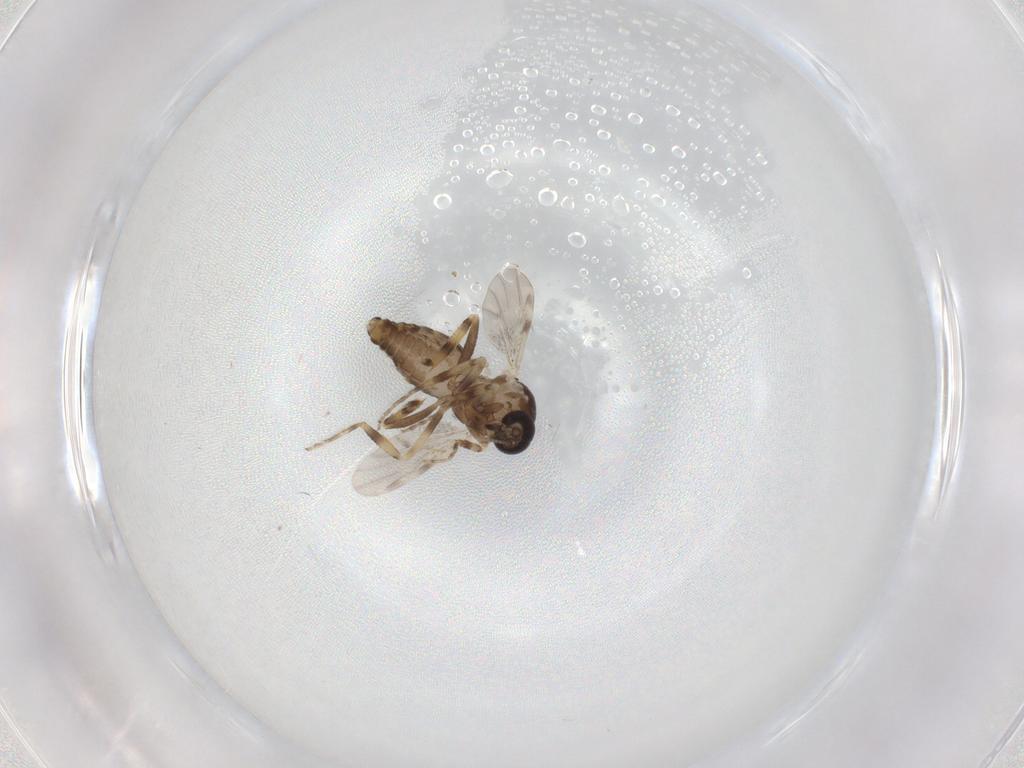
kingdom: Animalia
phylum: Arthropoda
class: Insecta
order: Diptera
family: Ceratopogonidae
